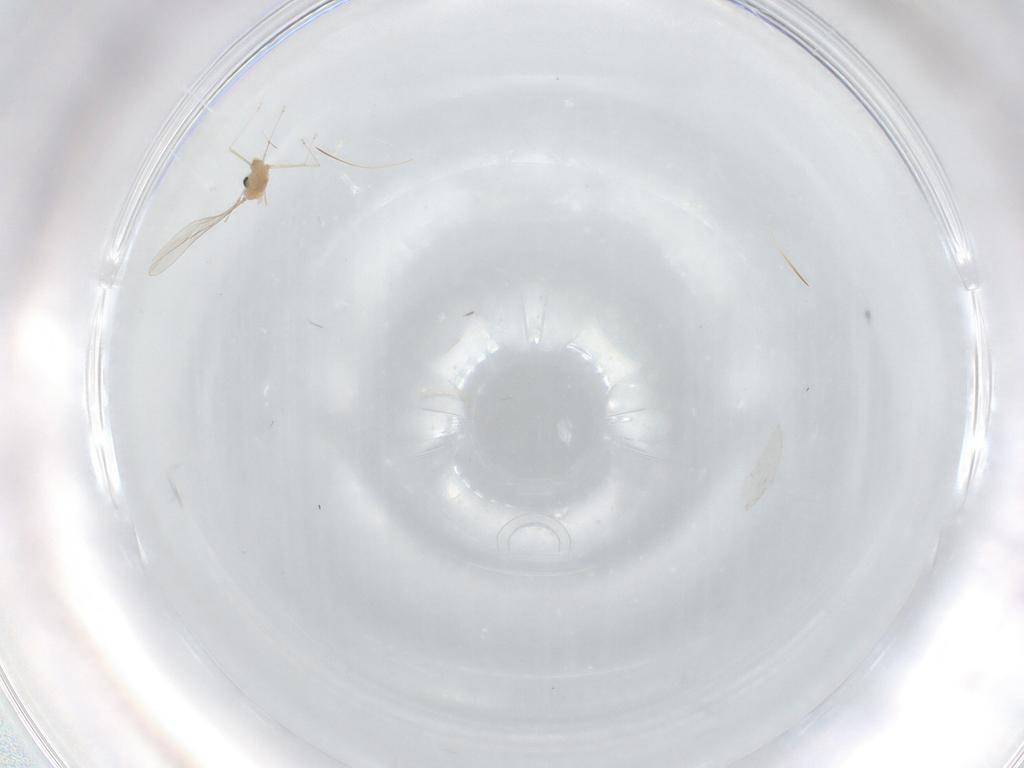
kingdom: Animalia
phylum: Arthropoda
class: Insecta
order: Diptera
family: Cecidomyiidae
